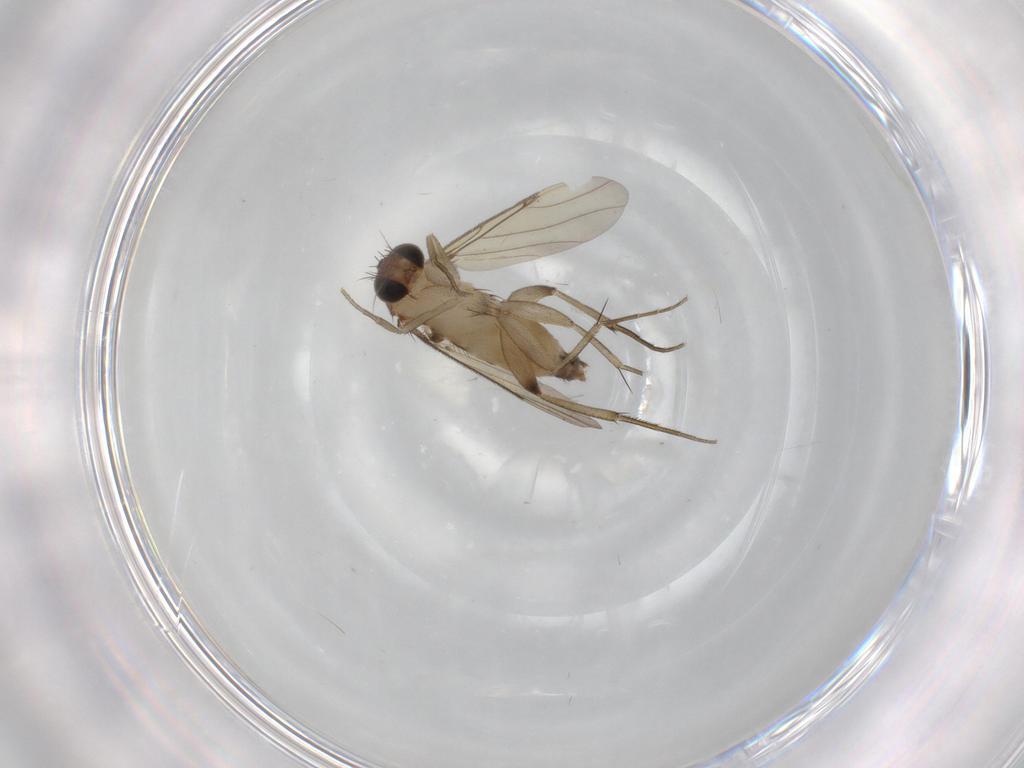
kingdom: Animalia
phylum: Arthropoda
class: Insecta
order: Diptera
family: Phoridae
